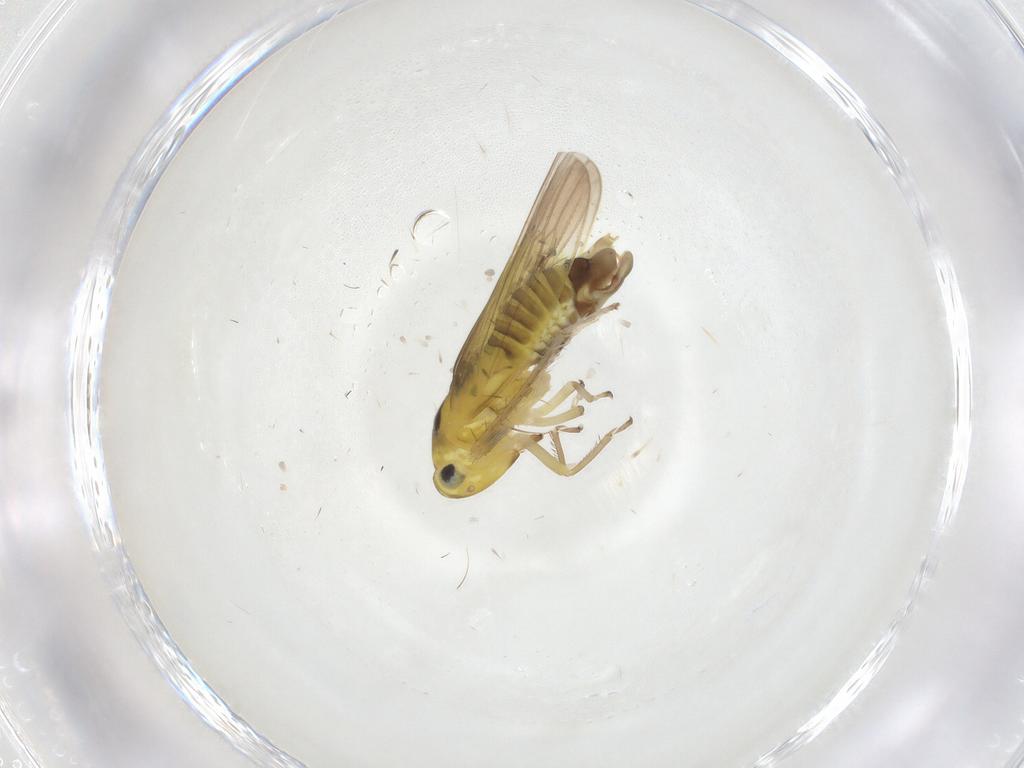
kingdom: Animalia
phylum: Arthropoda
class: Insecta
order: Hemiptera
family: Cicadellidae
